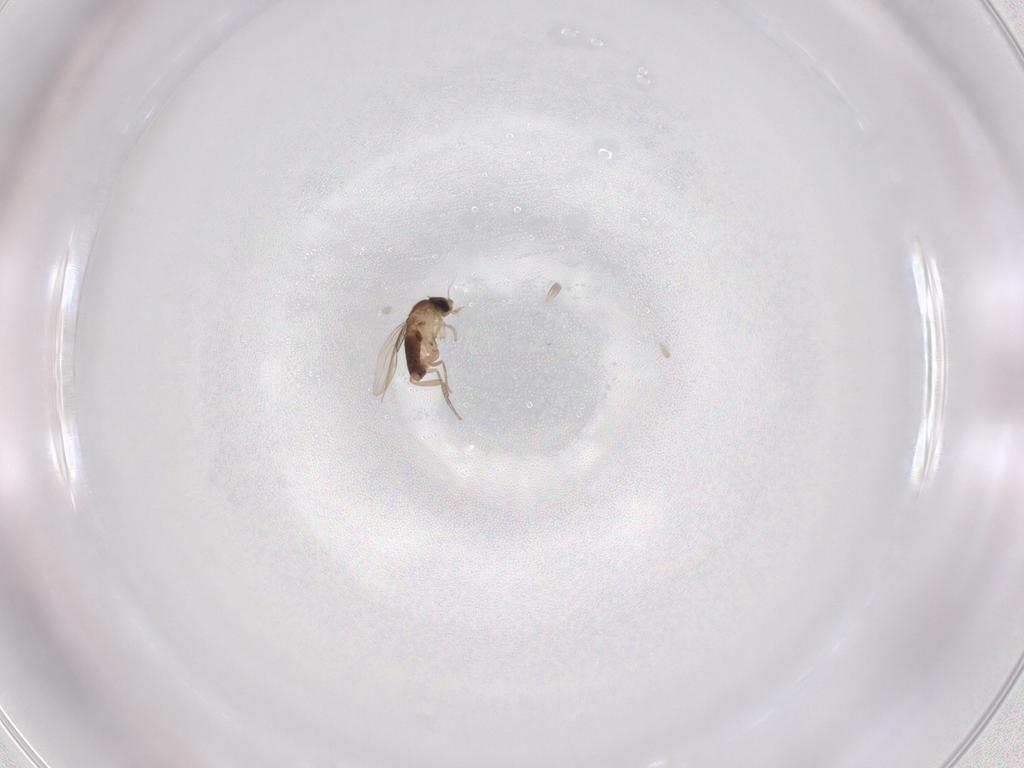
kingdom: Animalia
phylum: Arthropoda
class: Insecta
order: Diptera
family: Phoridae
